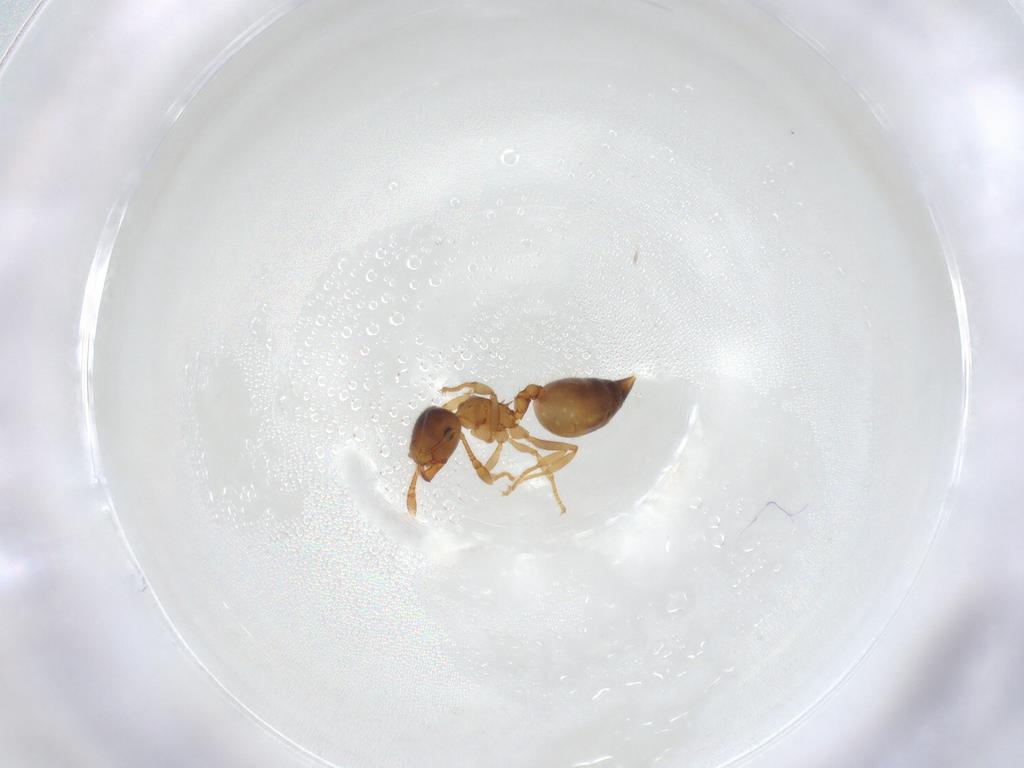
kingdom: Animalia
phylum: Arthropoda
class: Insecta
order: Hymenoptera
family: Formicidae
